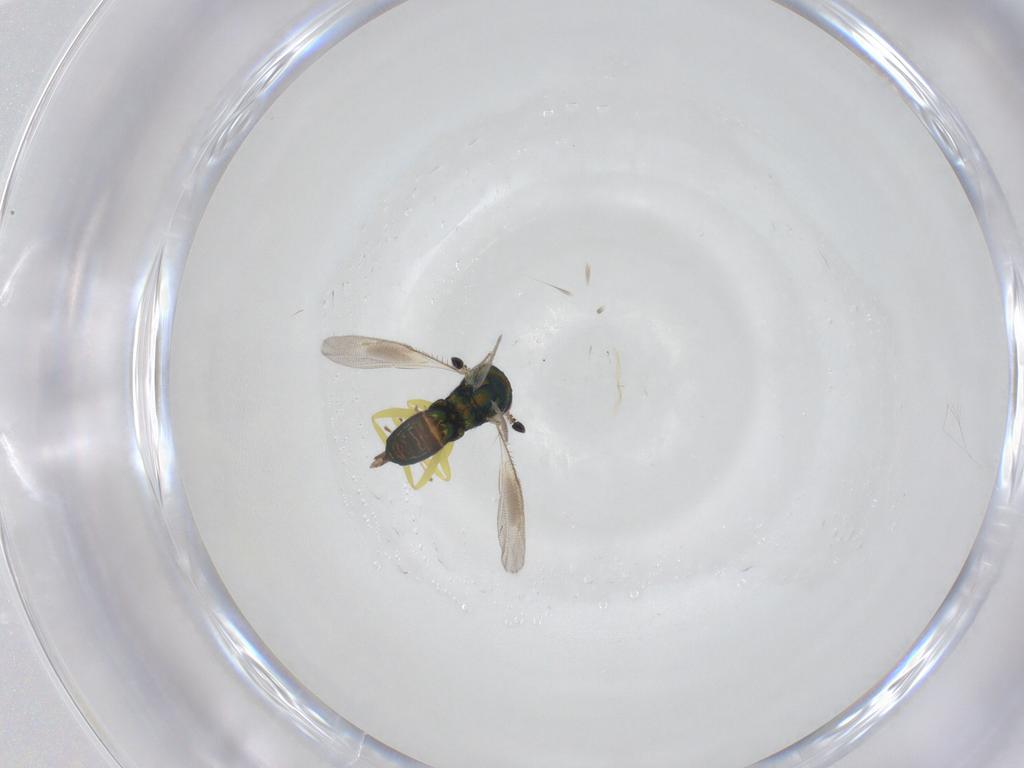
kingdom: Animalia
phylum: Arthropoda
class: Insecta
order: Hymenoptera
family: Pteromalidae
